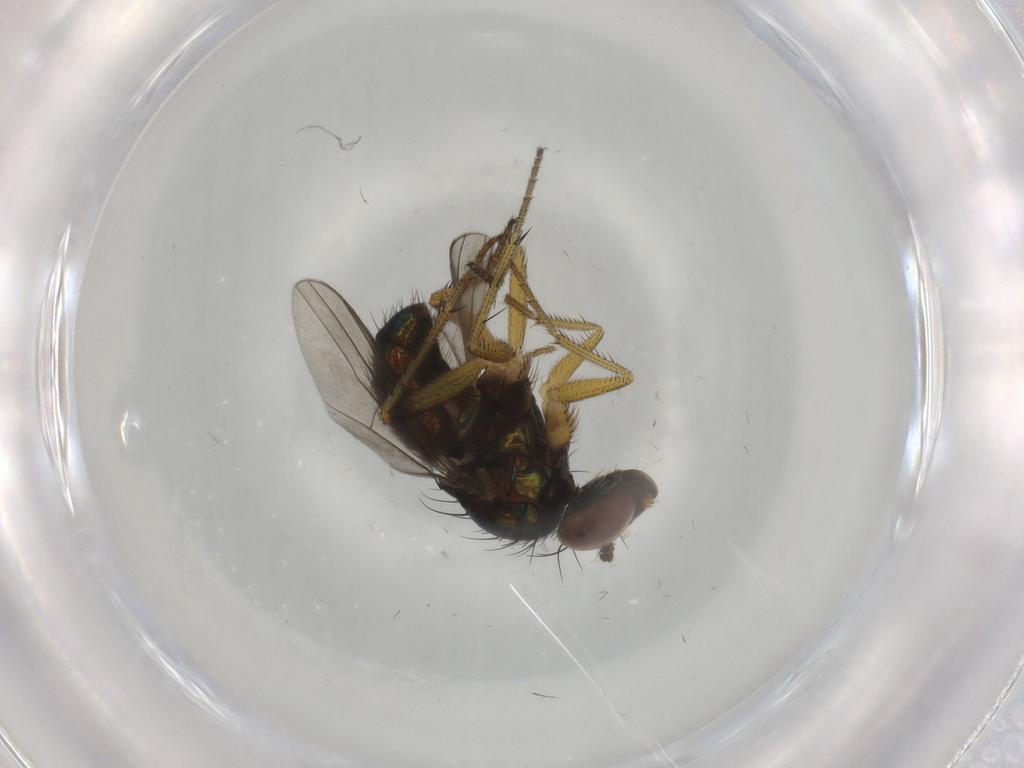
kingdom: Animalia
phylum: Arthropoda
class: Insecta
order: Diptera
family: Dolichopodidae
